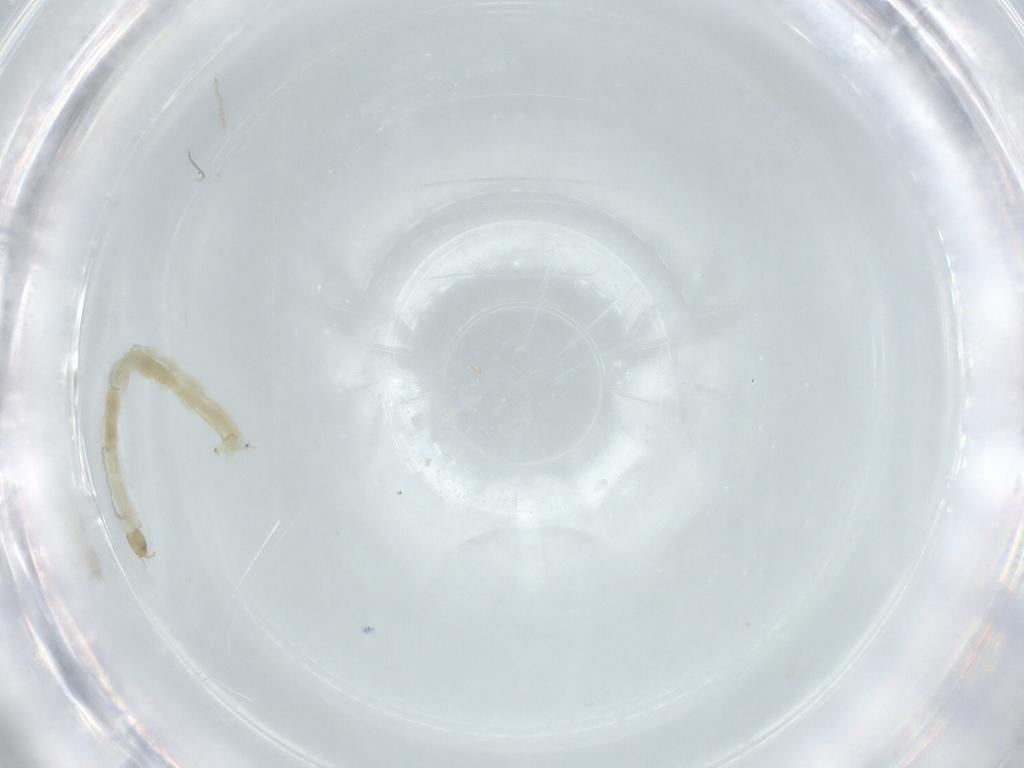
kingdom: Animalia
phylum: Arthropoda
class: Insecta
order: Diptera
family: Chironomidae
